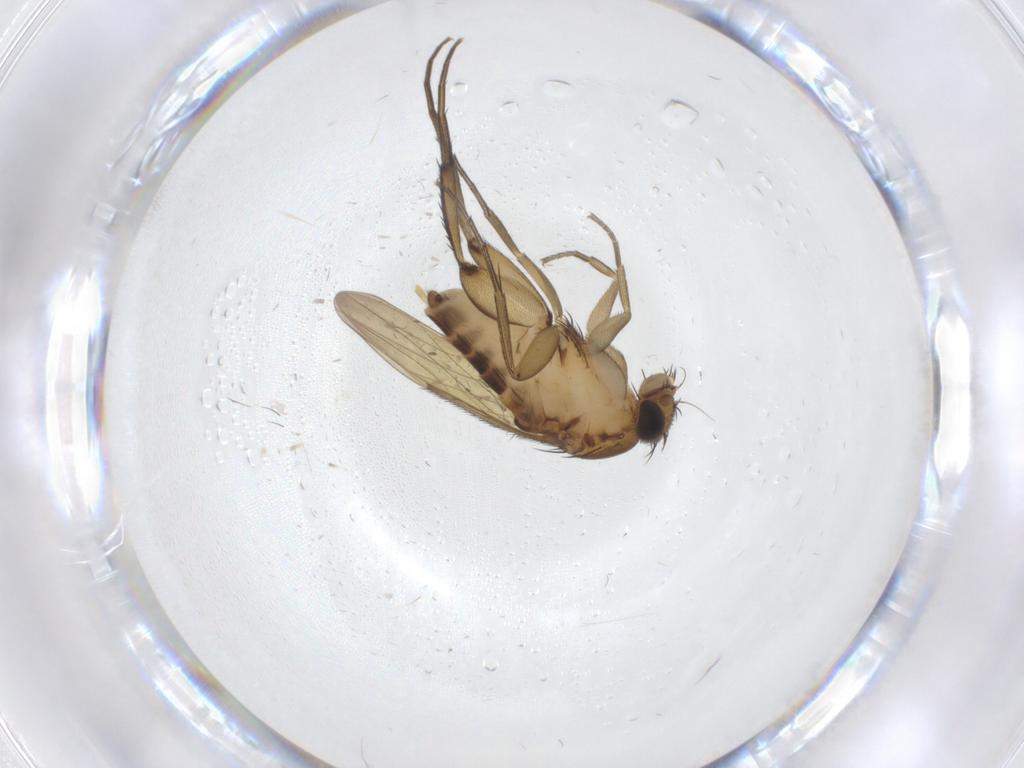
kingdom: Animalia
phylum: Arthropoda
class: Insecta
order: Diptera
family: Phoridae
